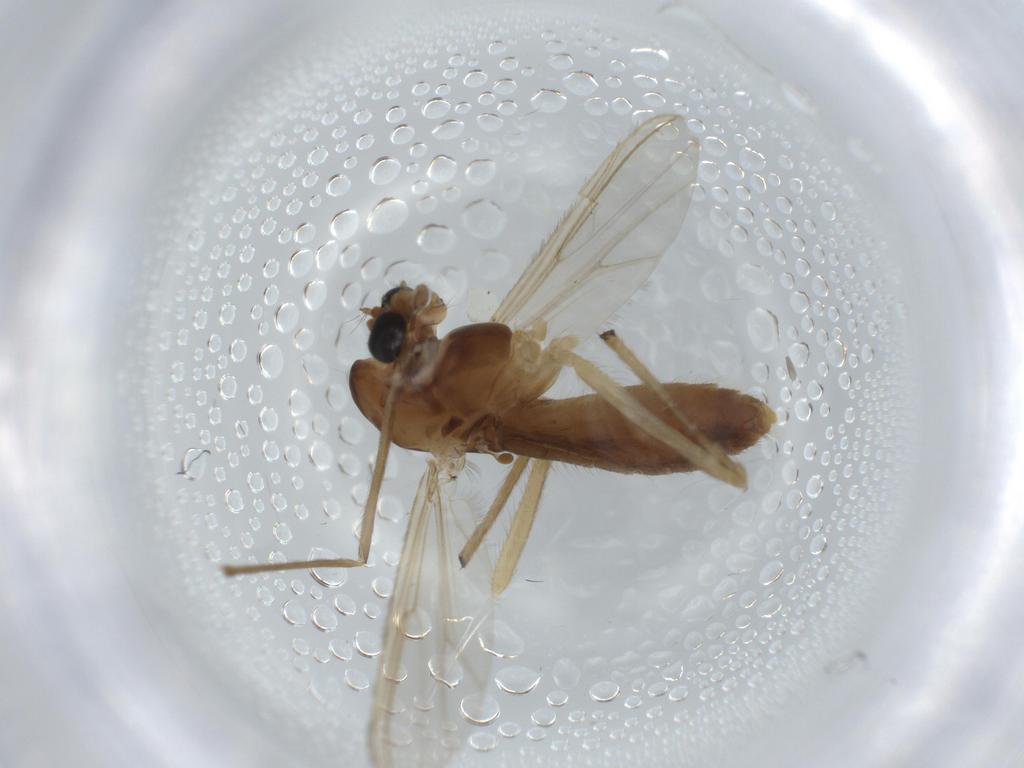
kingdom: Animalia
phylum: Arthropoda
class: Insecta
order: Diptera
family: Chironomidae
